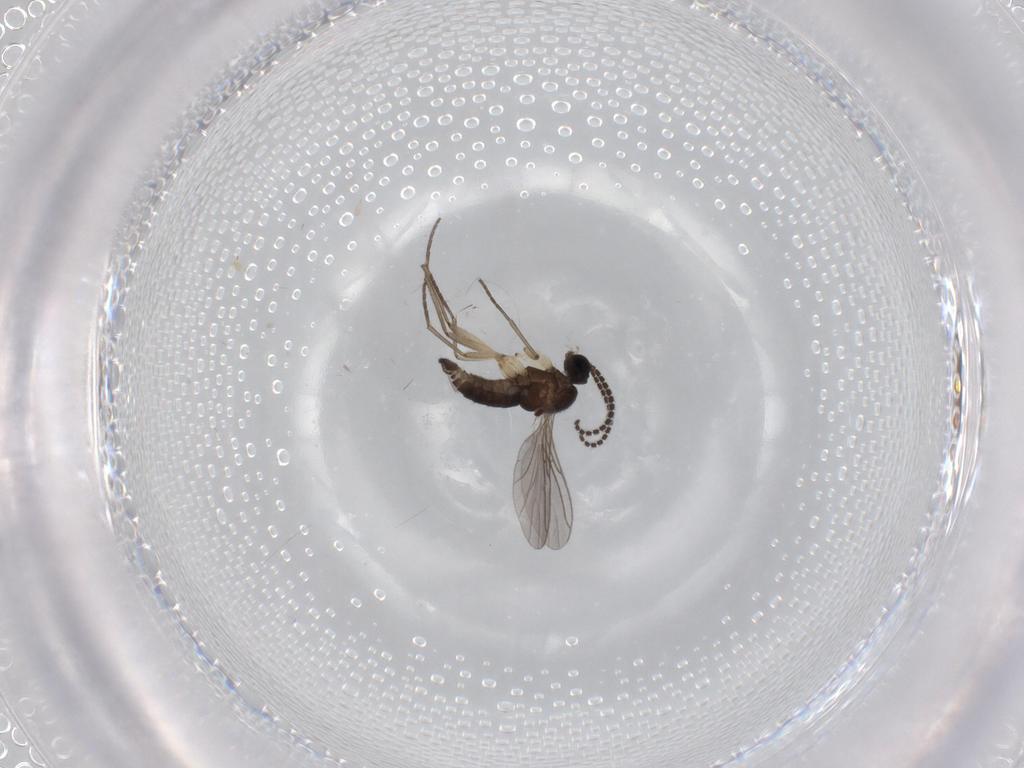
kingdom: Animalia
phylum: Arthropoda
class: Insecta
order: Diptera
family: Sciaridae
